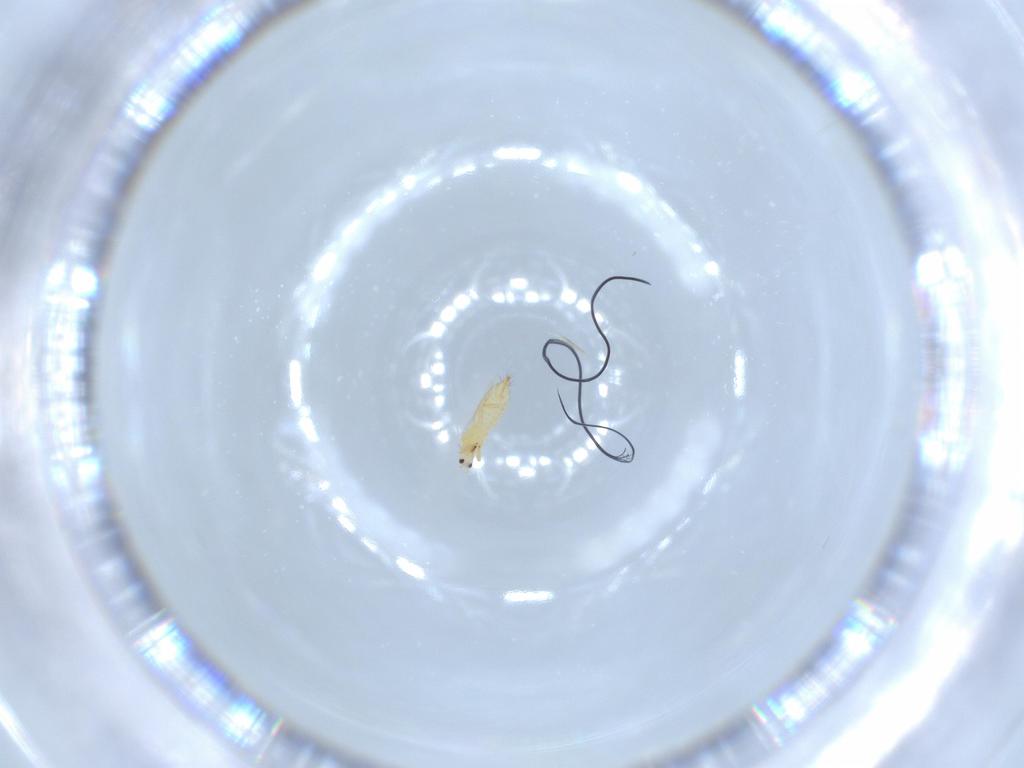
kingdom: Animalia
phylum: Arthropoda
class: Insecta
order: Thysanoptera
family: Thripidae
